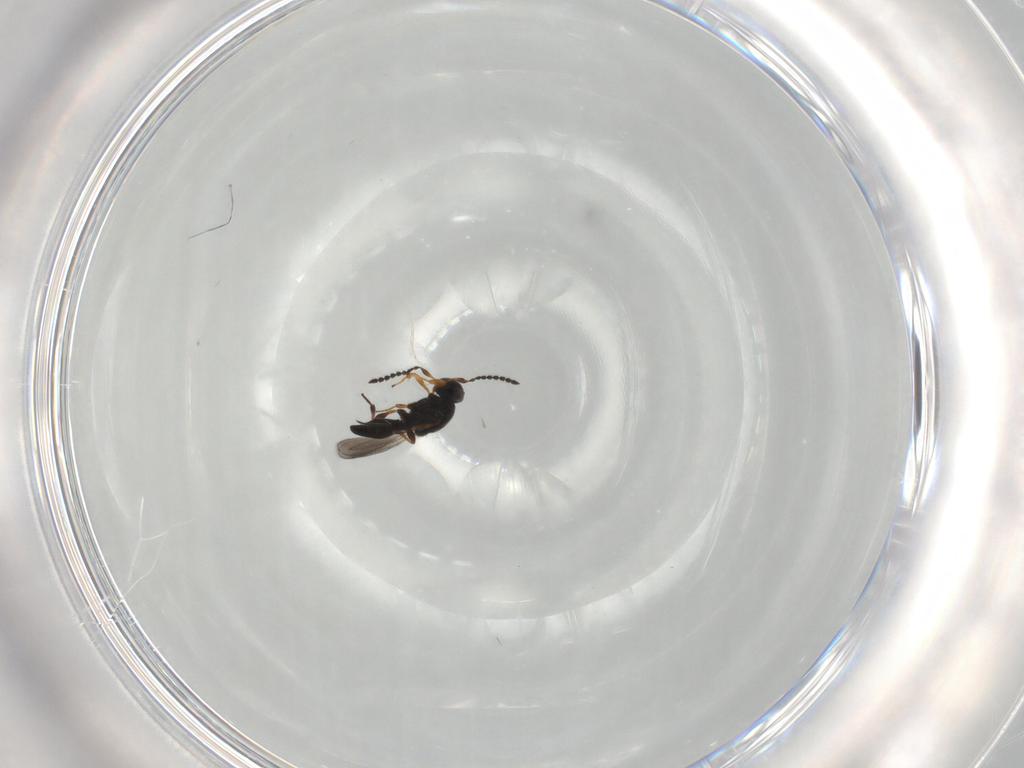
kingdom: Animalia
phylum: Arthropoda
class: Insecta
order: Hymenoptera
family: Platygastridae
